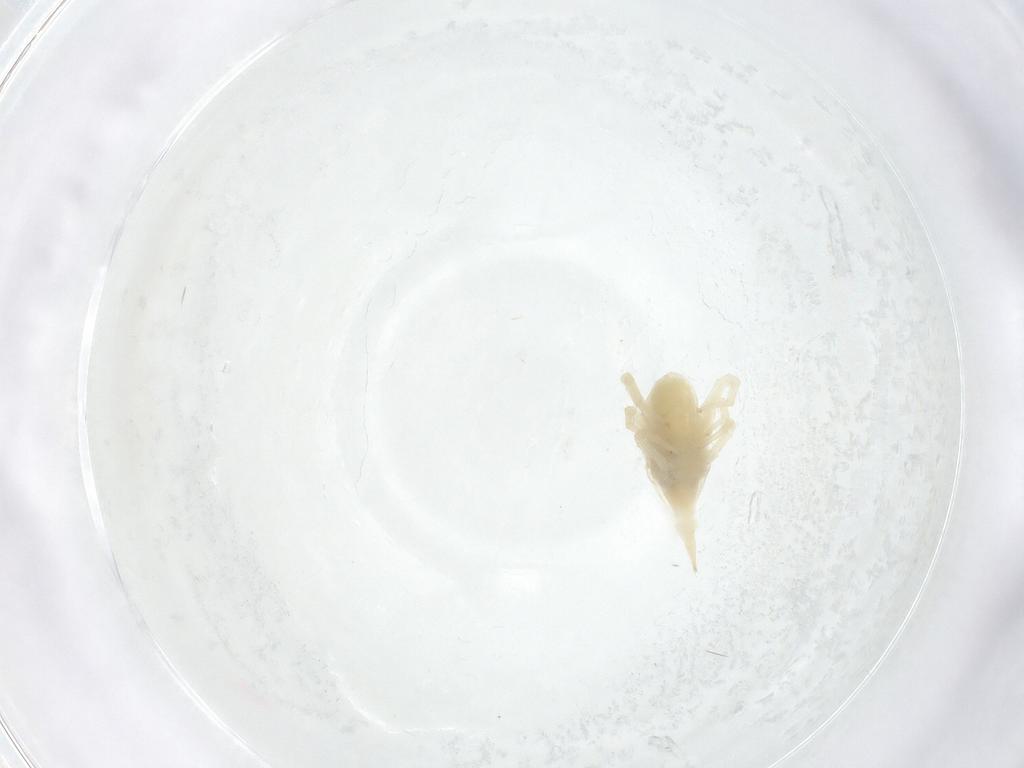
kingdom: Animalia
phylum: Arthropoda
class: Arachnida
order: Trombidiformes
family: Bdellidae
